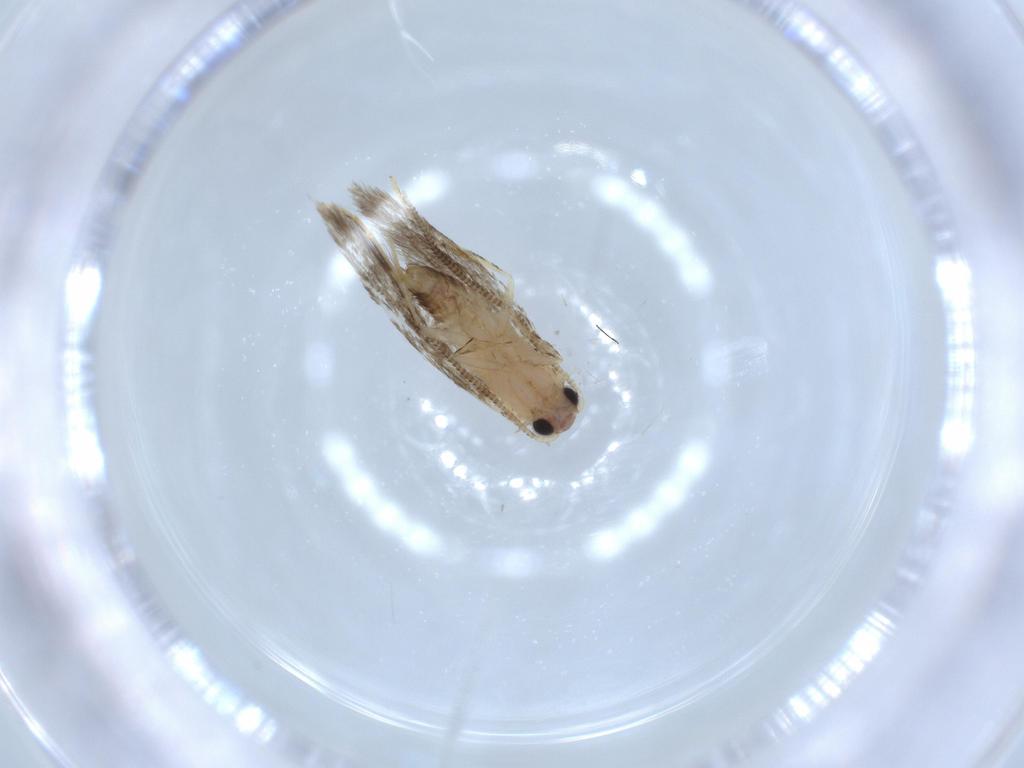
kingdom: Animalia
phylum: Arthropoda
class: Insecta
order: Lepidoptera
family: Tineidae
